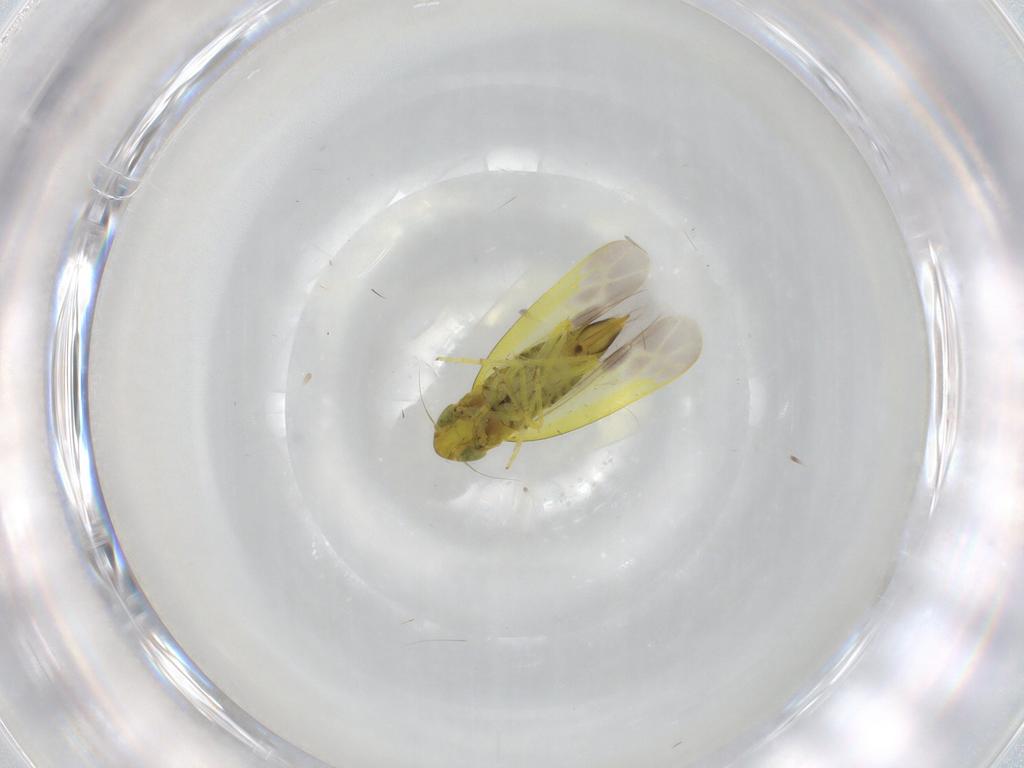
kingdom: Animalia
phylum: Arthropoda
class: Insecta
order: Hemiptera
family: Cicadellidae
